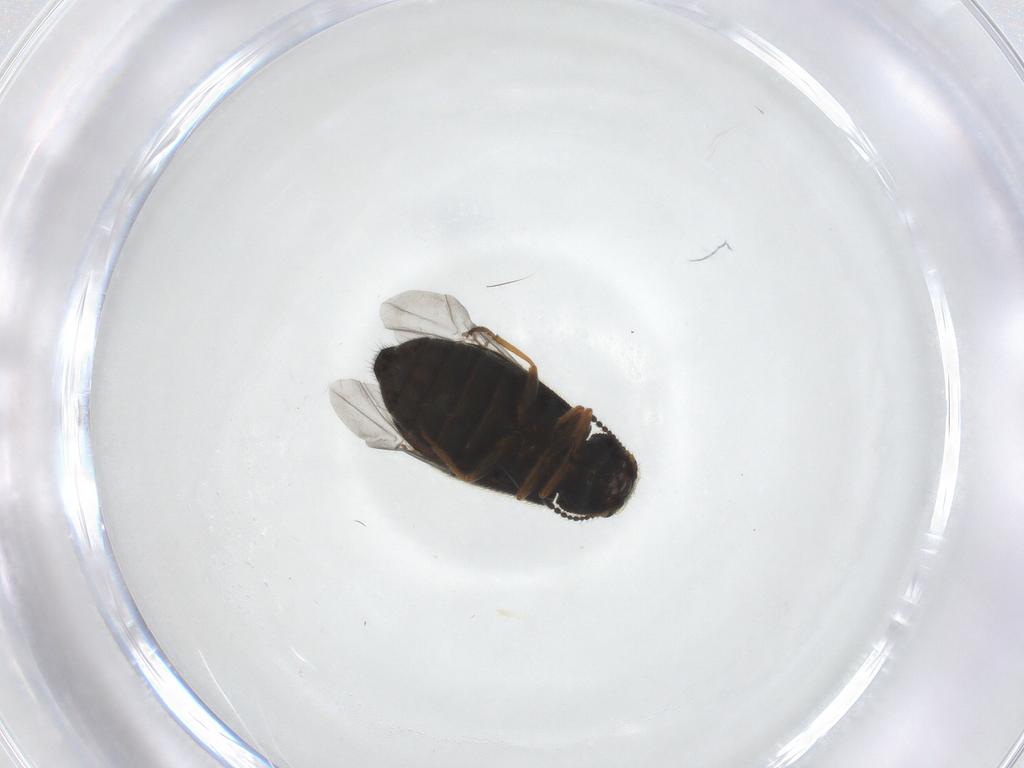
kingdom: Animalia
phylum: Arthropoda
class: Insecta
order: Coleoptera
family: Melyridae
